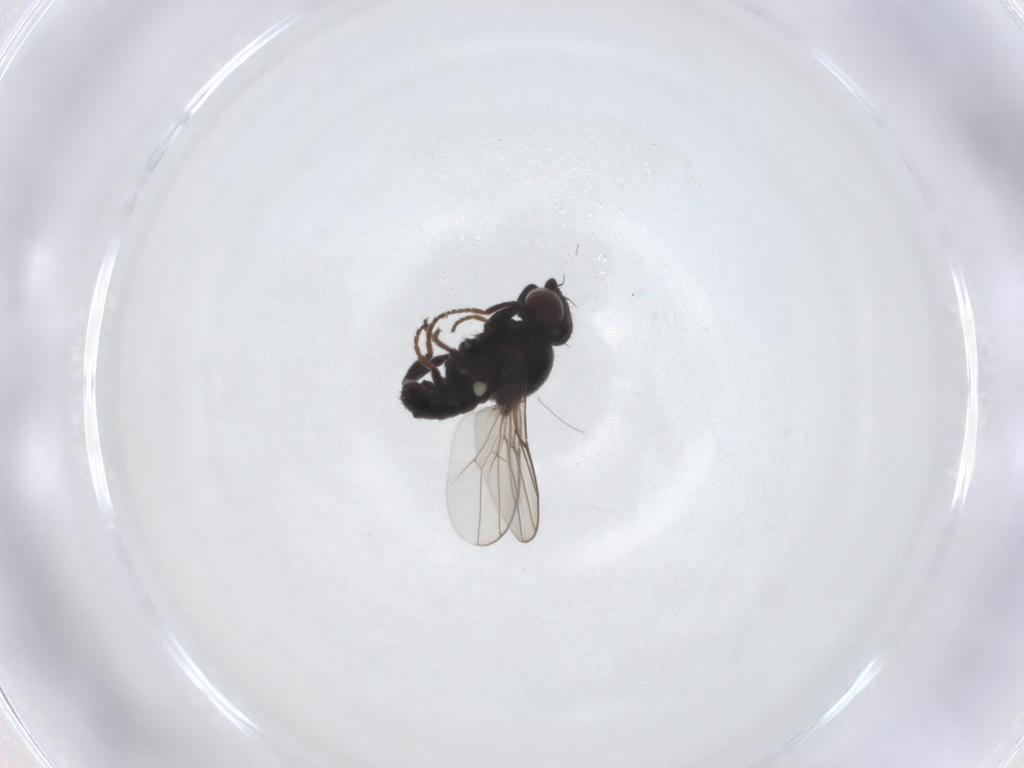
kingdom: Animalia
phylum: Arthropoda
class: Insecta
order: Diptera
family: Chloropidae
